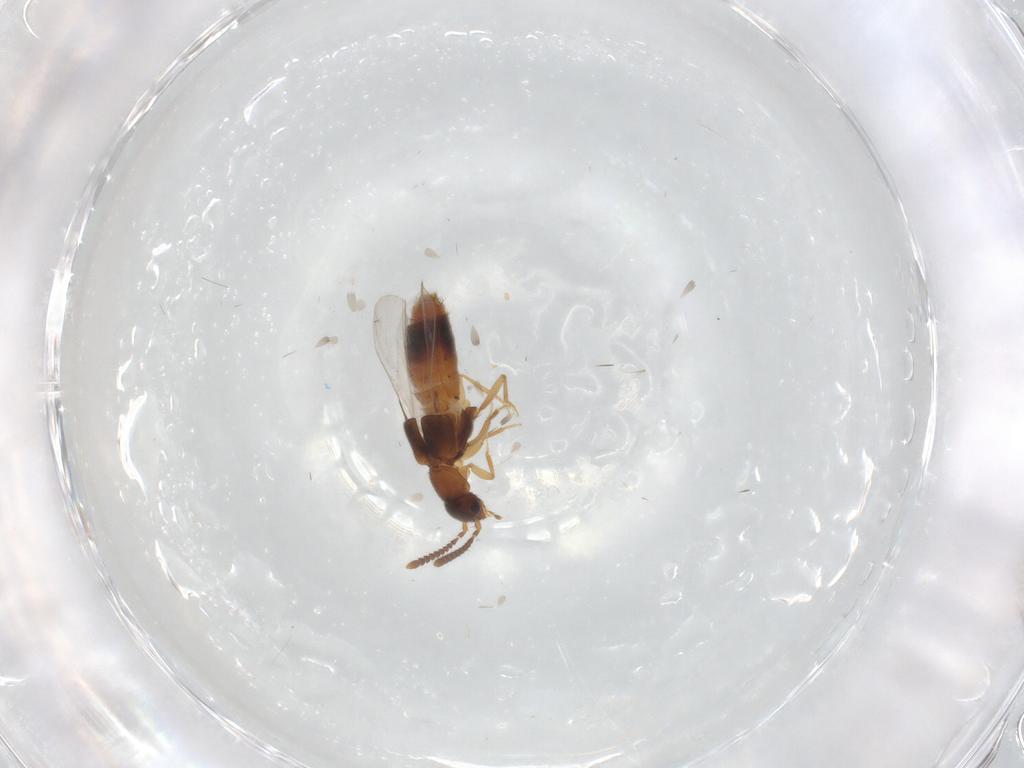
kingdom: Animalia
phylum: Arthropoda
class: Insecta
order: Coleoptera
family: Staphylinidae
